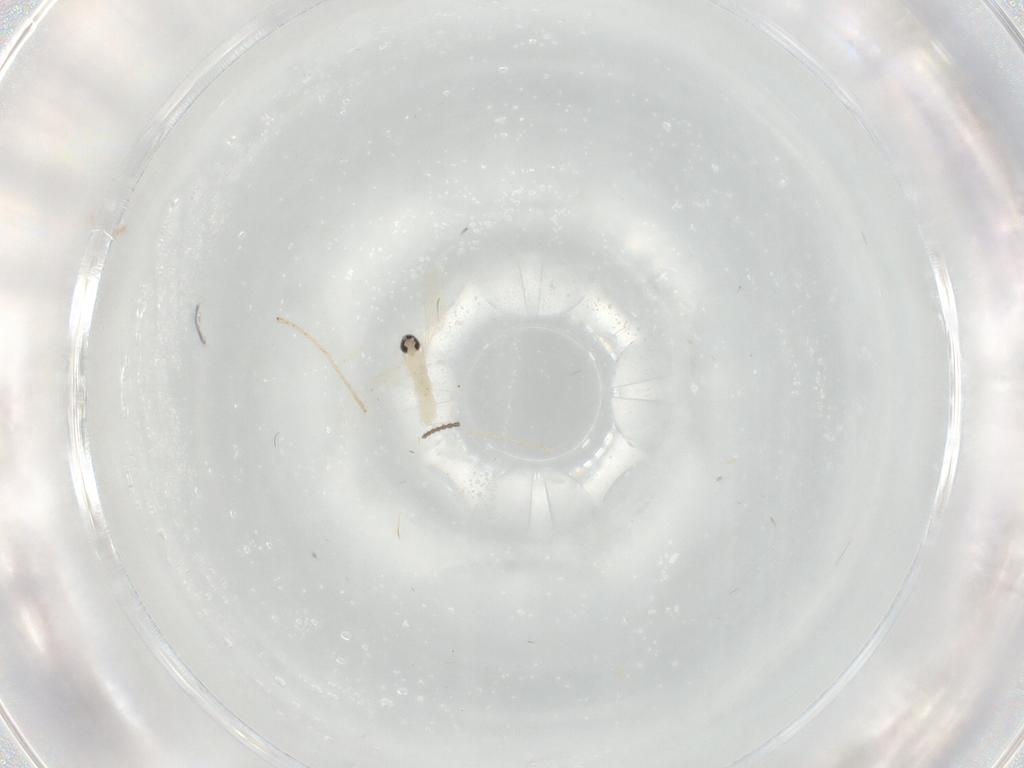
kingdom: Animalia
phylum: Arthropoda
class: Insecta
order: Diptera
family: Cecidomyiidae
